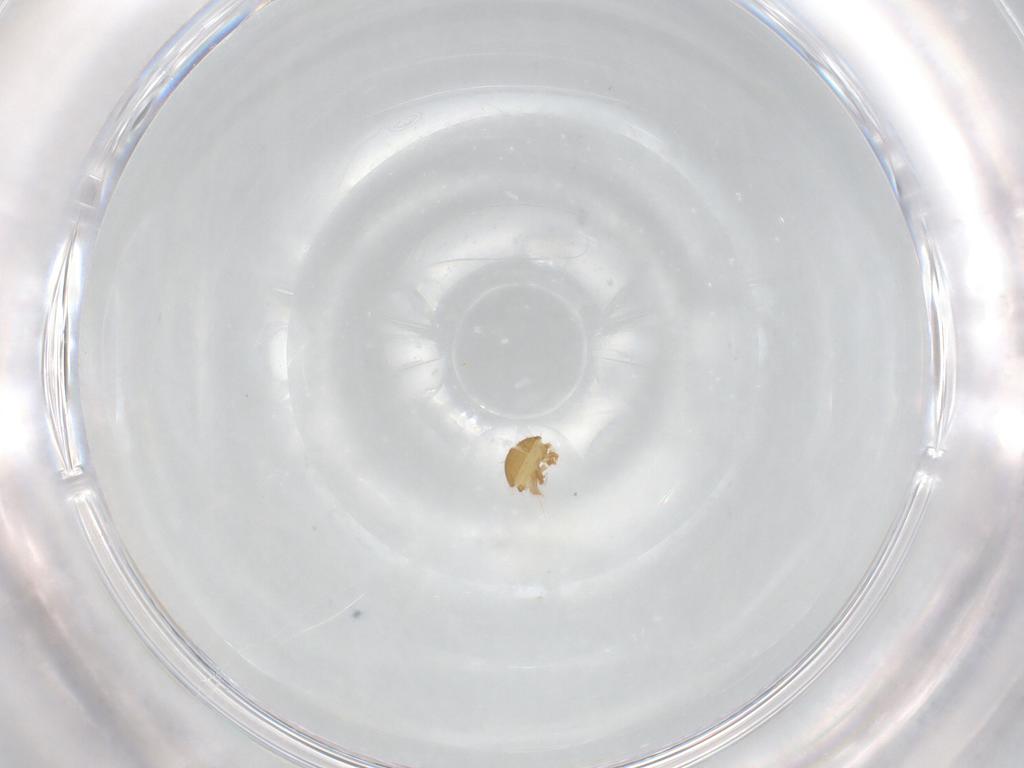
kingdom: Animalia
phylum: Arthropoda
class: Arachnida
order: Trombidiformes
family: Stigmaeidae
